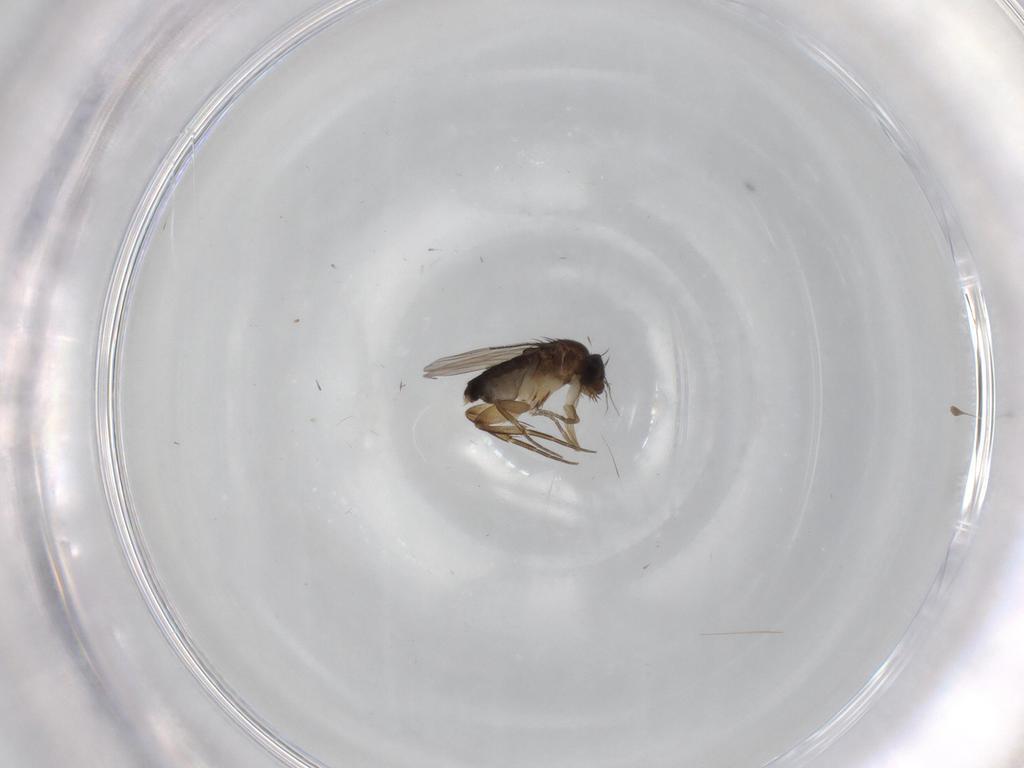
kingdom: Animalia
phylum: Arthropoda
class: Insecta
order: Diptera
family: Phoridae
